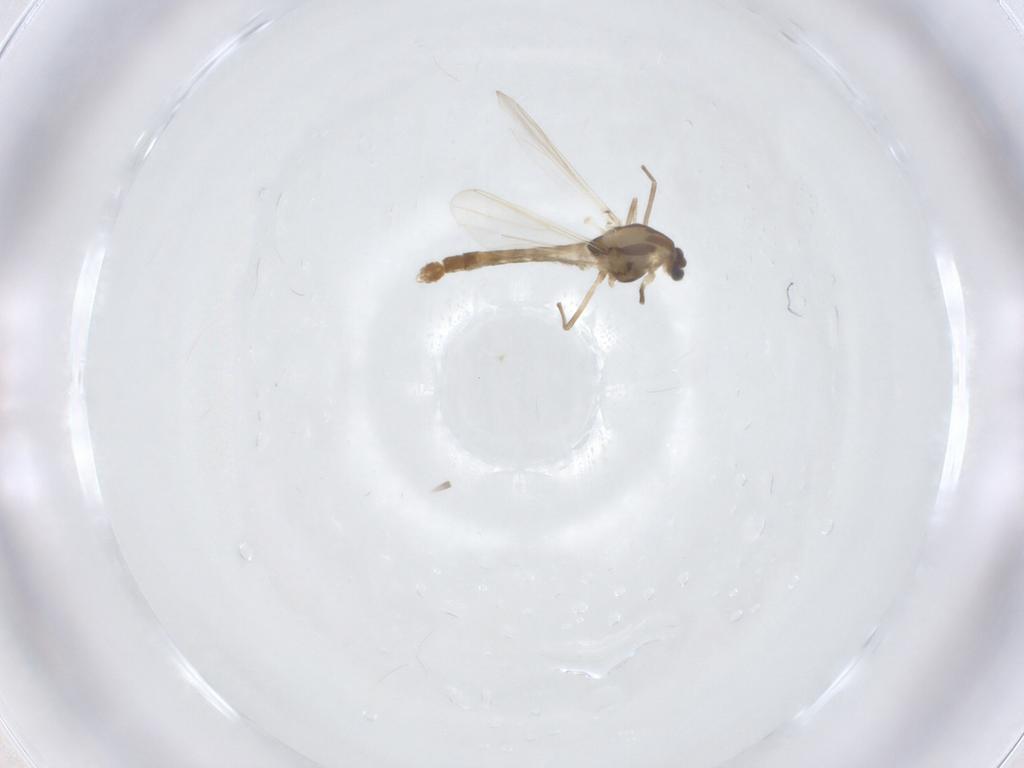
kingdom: Animalia
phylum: Arthropoda
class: Insecta
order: Diptera
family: Chironomidae
